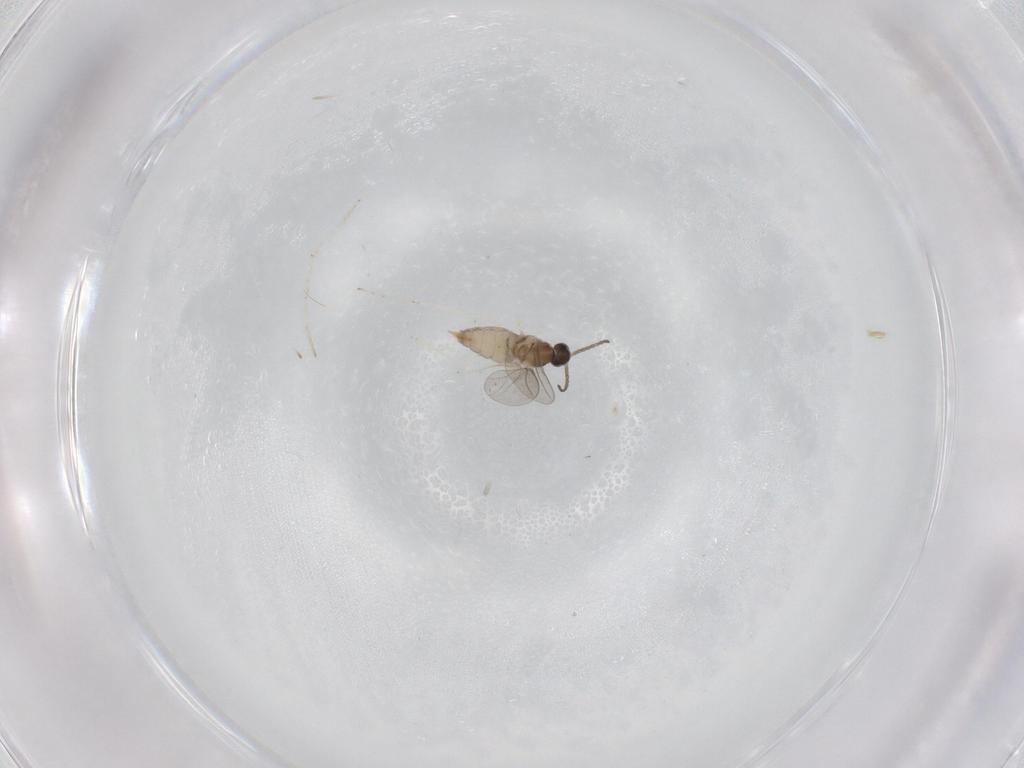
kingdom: Animalia
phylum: Arthropoda
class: Insecta
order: Diptera
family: Cecidomyiidae
